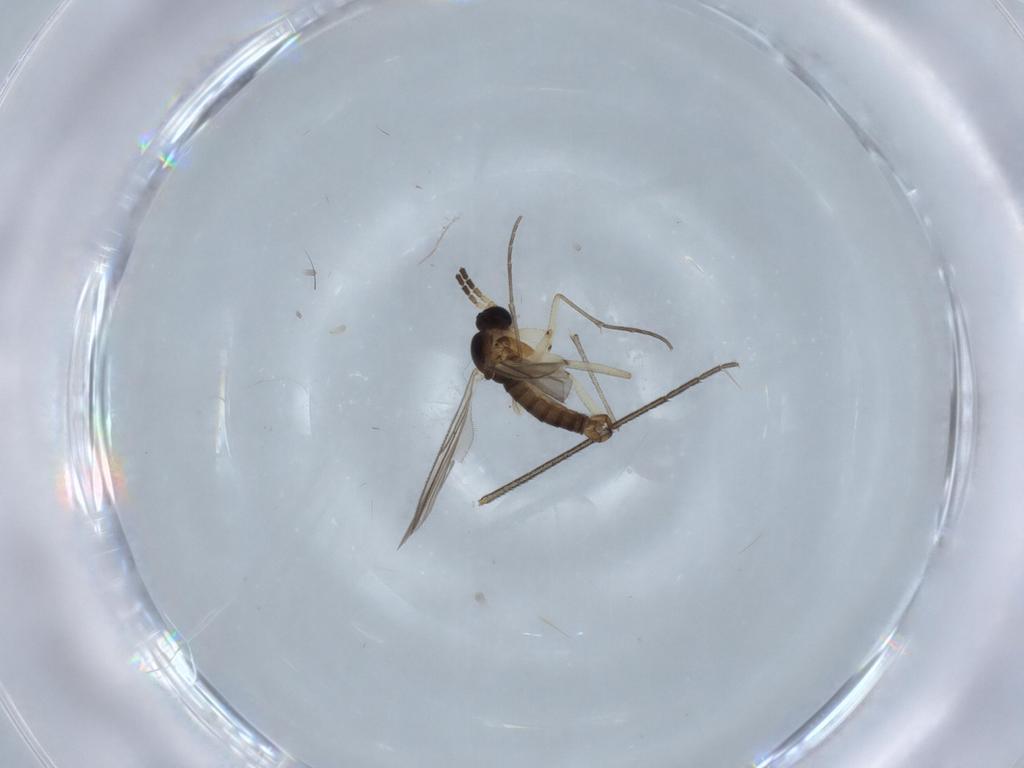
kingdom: Animalia
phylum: Arthropoda
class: Insecta
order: Diptera
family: Sciaridae
